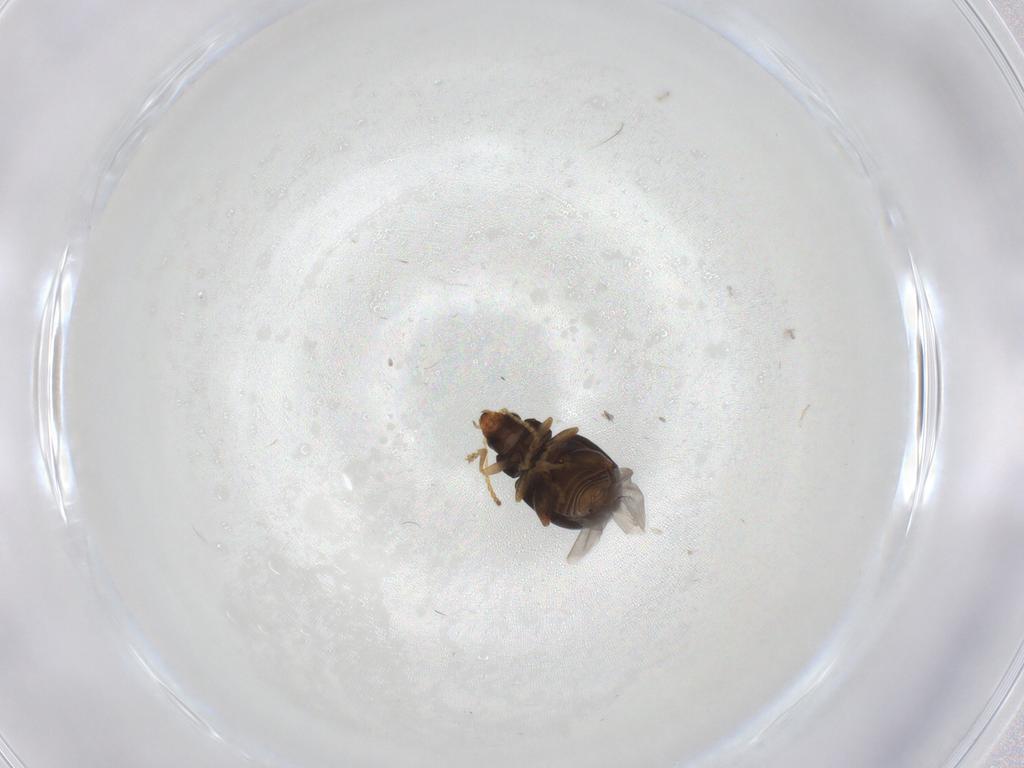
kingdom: Animalia
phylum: Arthropoda
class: Insecta
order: Coleoptera
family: Chrysomelidae
